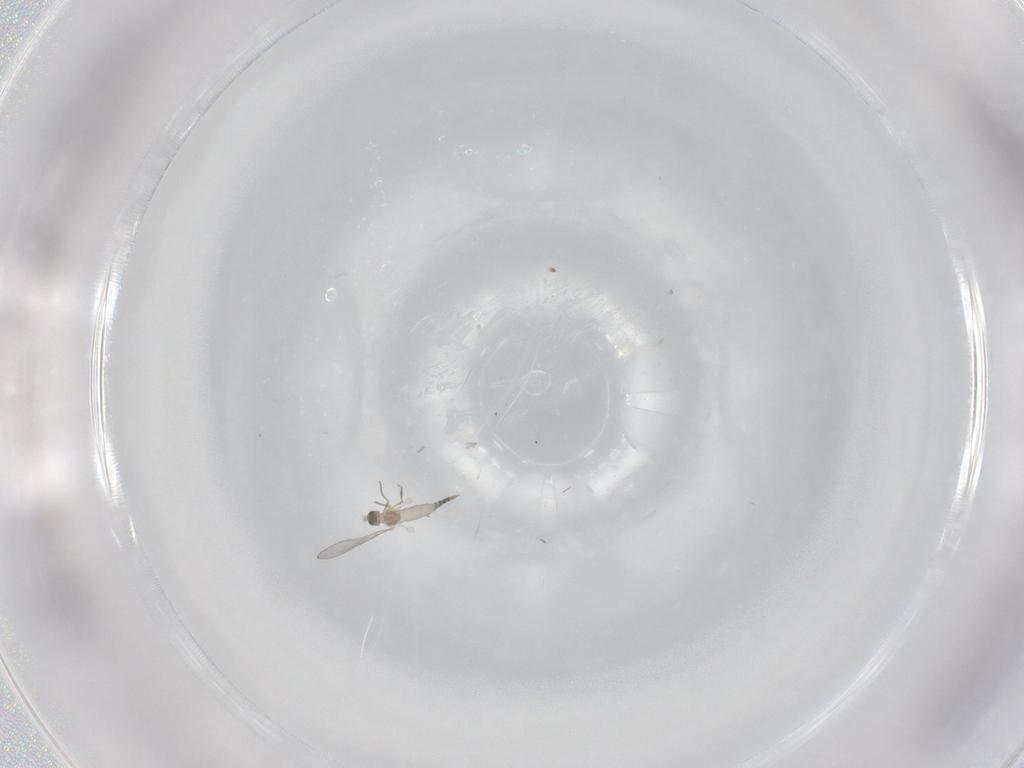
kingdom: Animalia
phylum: Arthropoda
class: Insecta
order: Diptera
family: Cecidomyiidae
